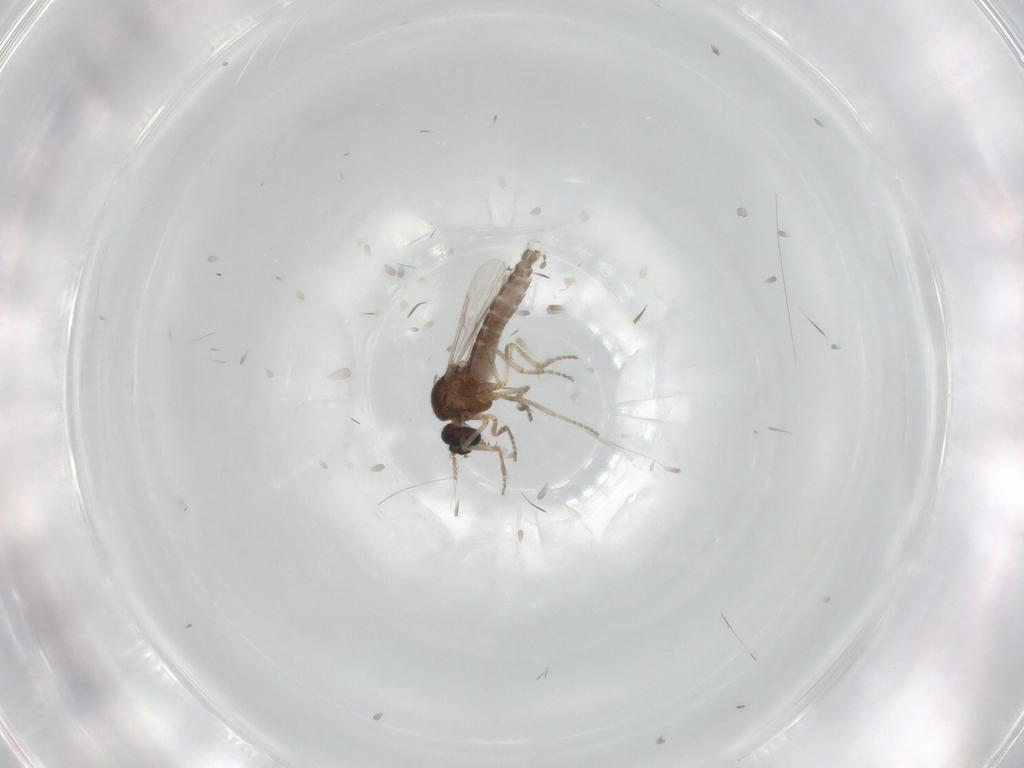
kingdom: Animalia
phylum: Arthropoda
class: Insecta
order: Diptera
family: Ceratopogonidae
